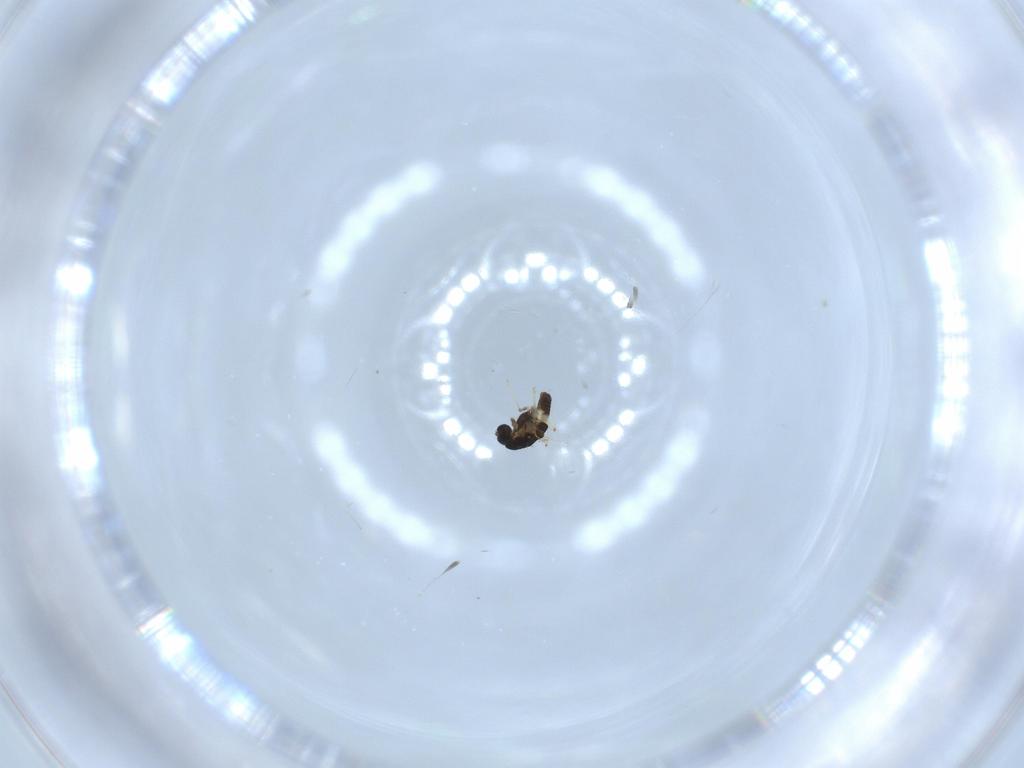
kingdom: Animalia
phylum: Arthropoda
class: Insecta
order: Diptera
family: Chironomidae
